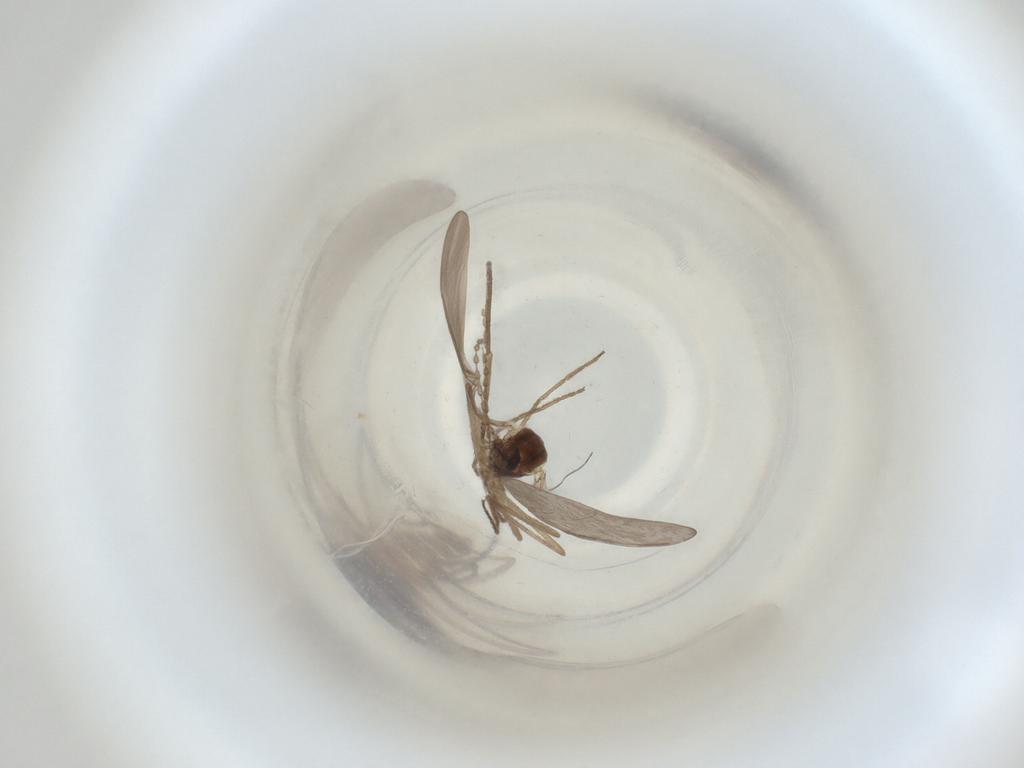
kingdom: Animalia
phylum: Arthropoda
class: Insecta
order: Diptera
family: Cecidomyiidae
